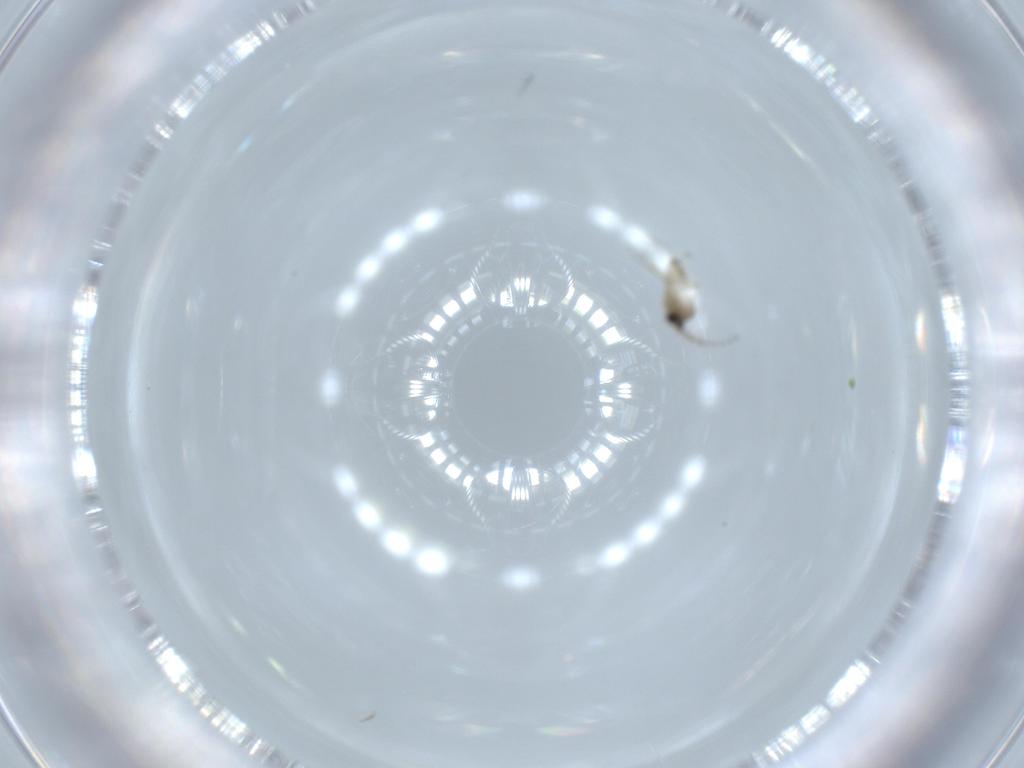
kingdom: Animalia
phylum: Arthropoda
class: Insecta
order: Diptera
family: Cecidomyiidae
